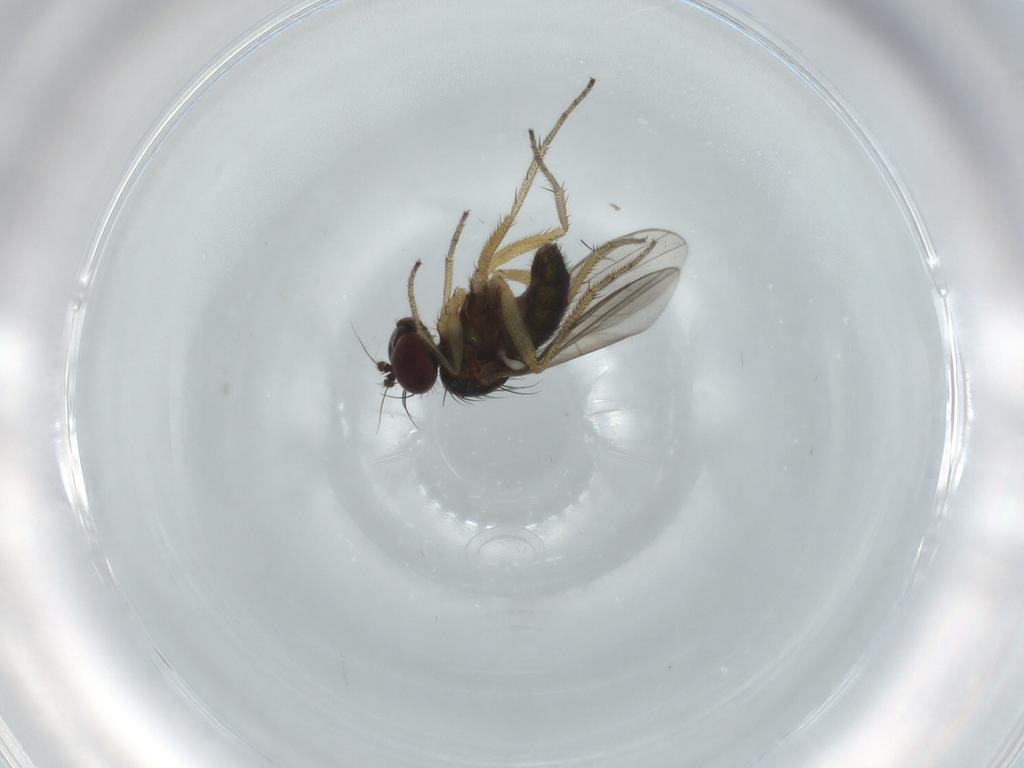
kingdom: Animalia
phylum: Arthropoda
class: Insecta
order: Diptera
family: Dolichopodidae
